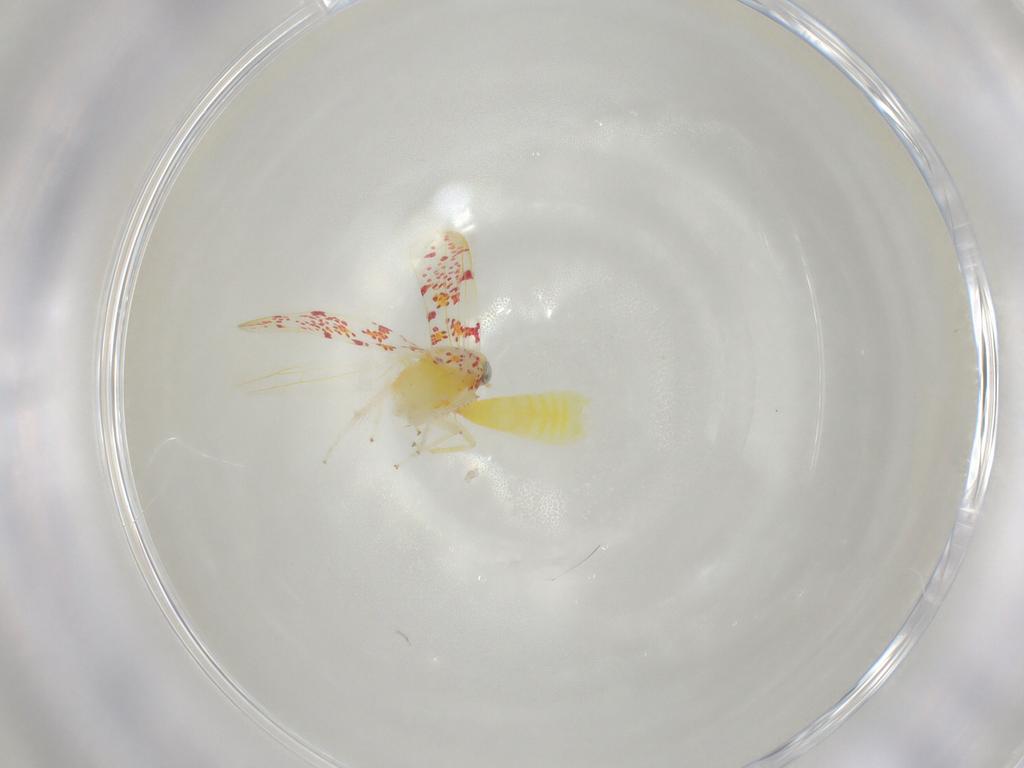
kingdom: Animalia
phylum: Arthropoda
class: Insecta
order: Hemiptera
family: Cicadellidae
